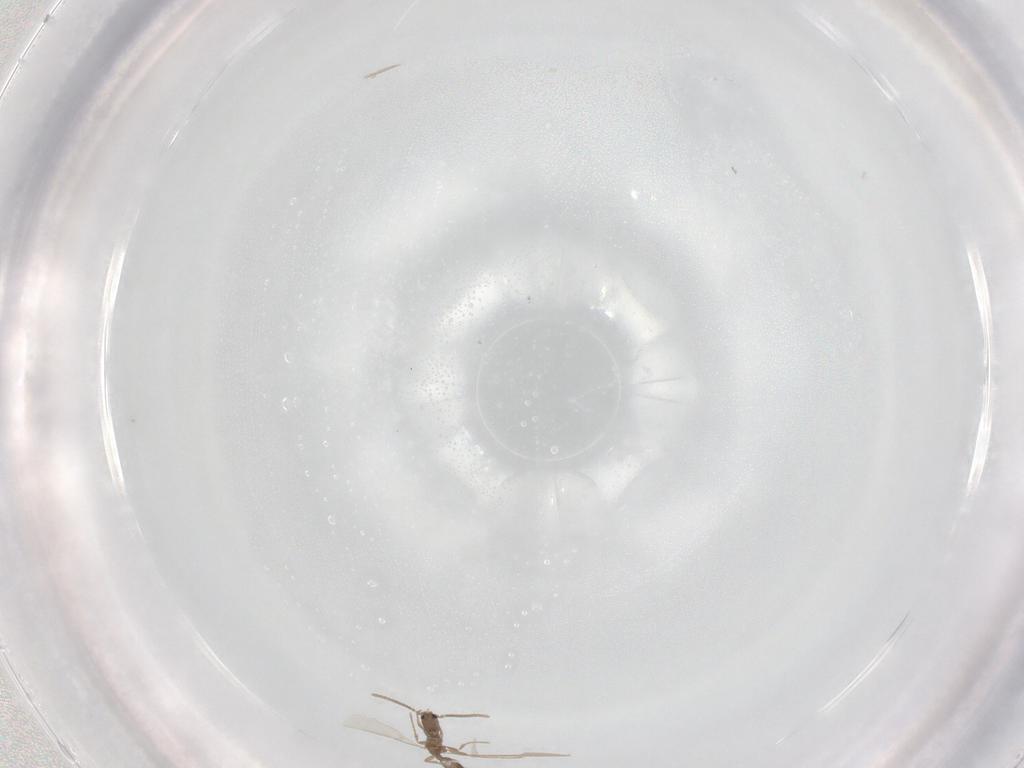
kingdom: Animalia
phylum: Arthropoda
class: Insecta
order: Hymenoptera
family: Formicidae
